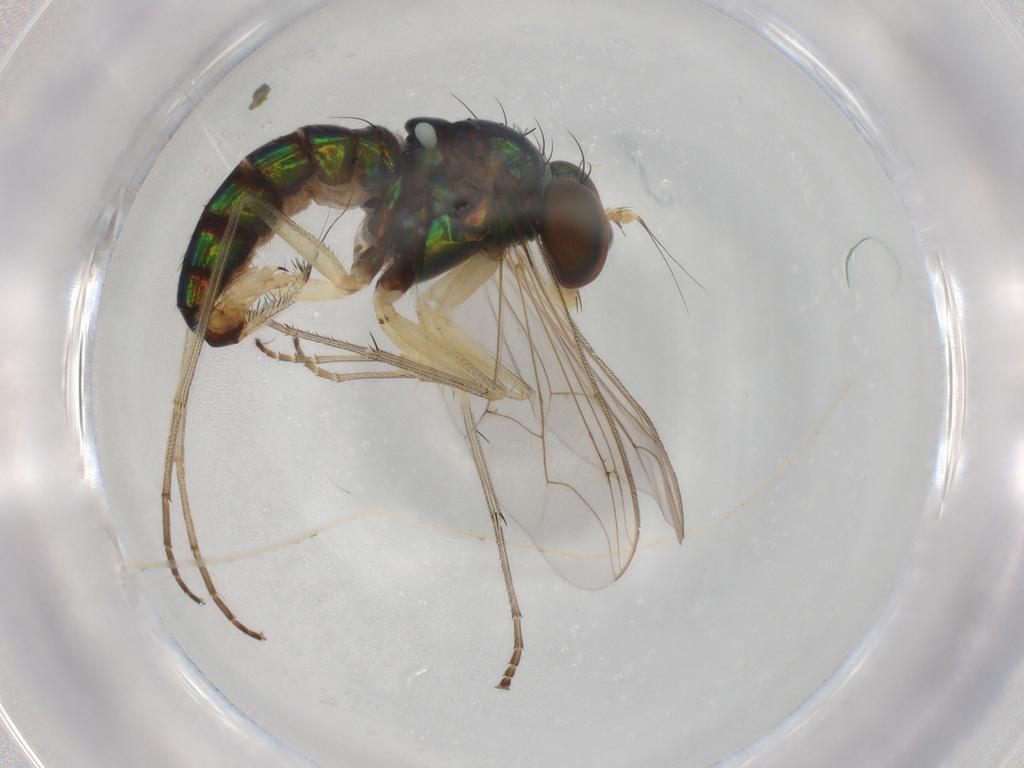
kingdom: Animalia
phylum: Arthropoda
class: Insecta
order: Diptera
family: Dolichopodidae
